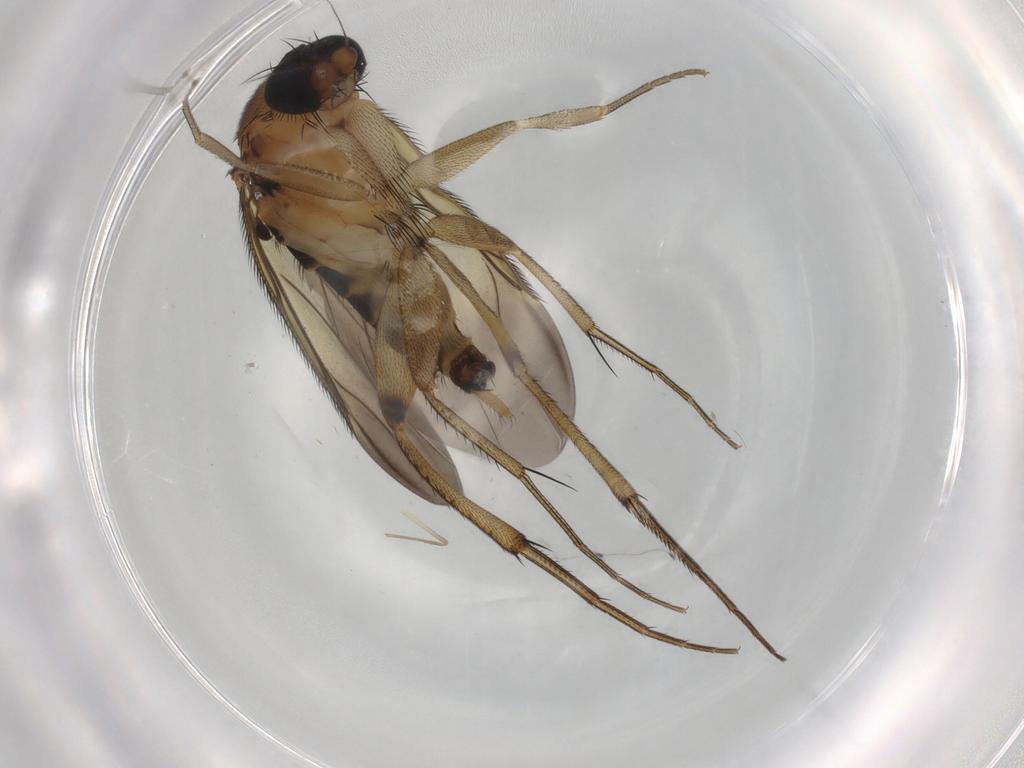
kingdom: Animalia
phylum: Arthropoda
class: Insecta
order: Diptera
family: Phoridae
